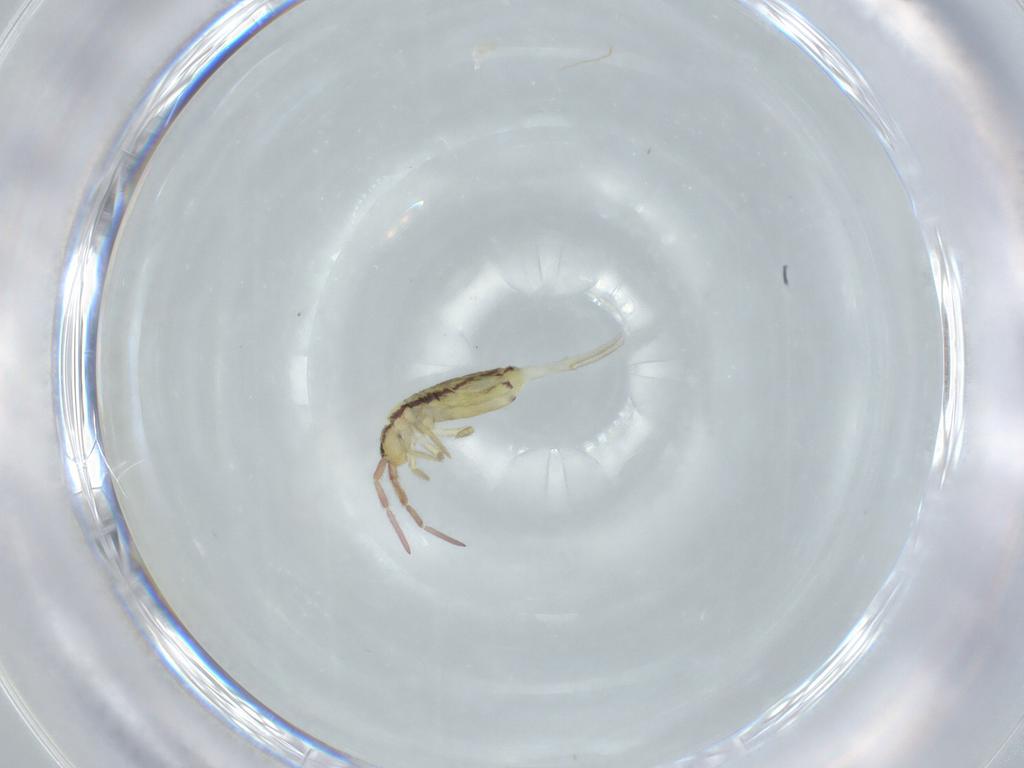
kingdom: Animalia
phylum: Arthropoda
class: Collembola
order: Entomobryomorpha
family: Entomobryidae
